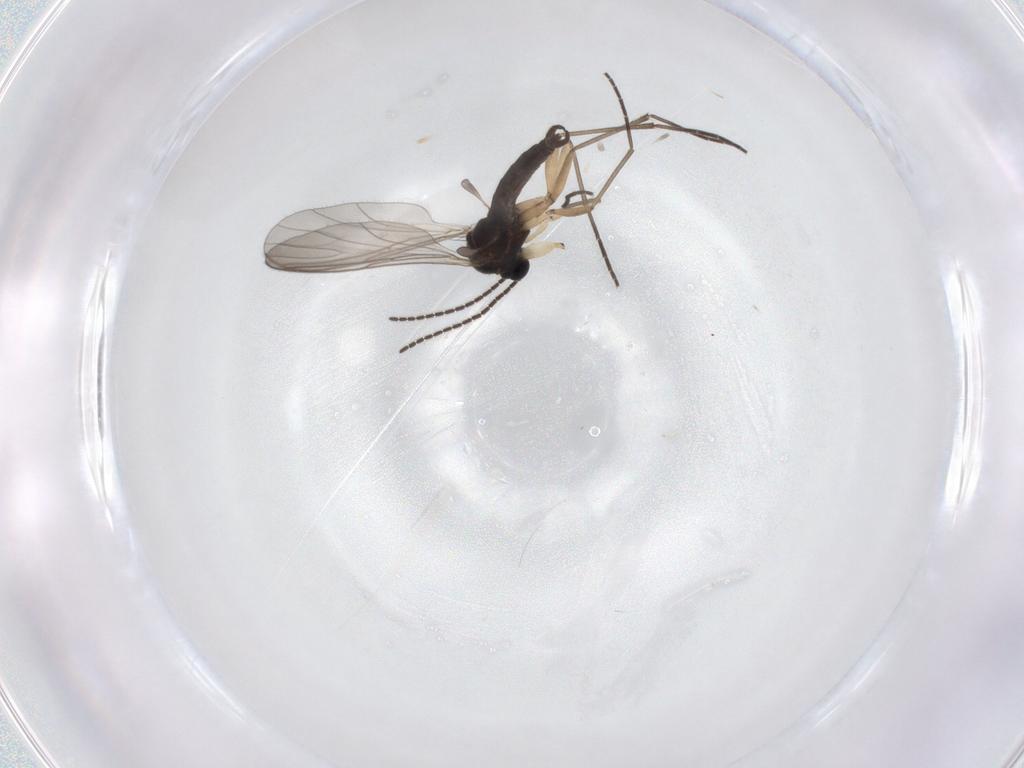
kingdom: Animalia
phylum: Arthropoda
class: Insecta
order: Diptera
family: Sciaridae
